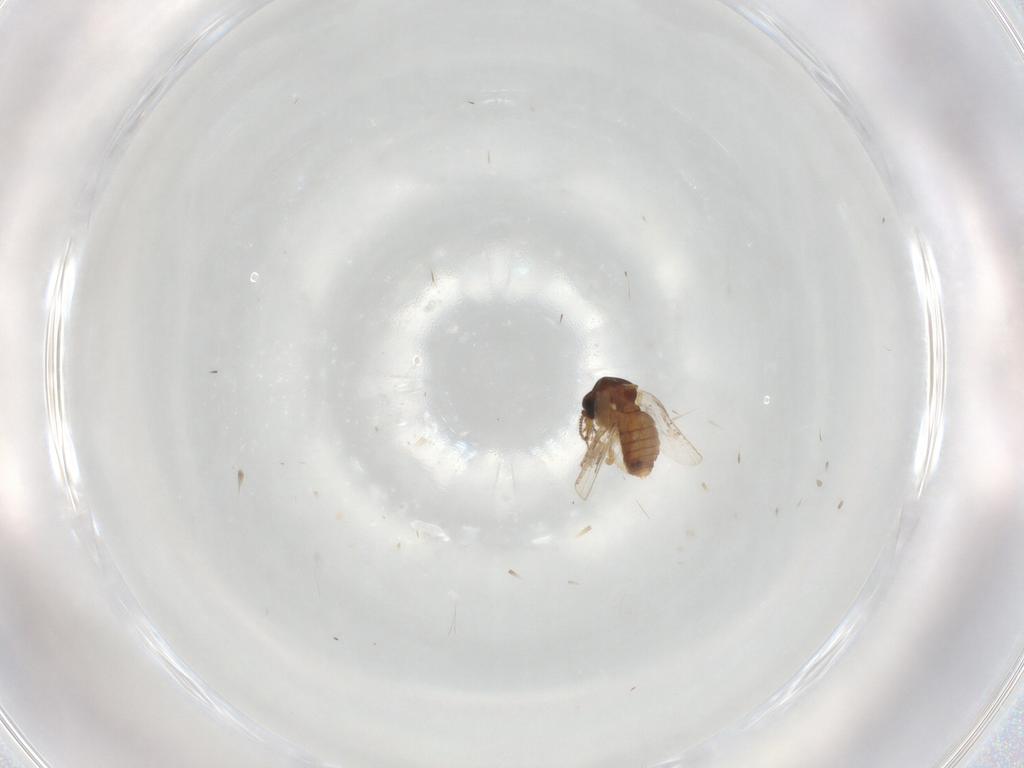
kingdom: Animalia
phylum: Arthropoda
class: Insecta
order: Diptera
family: Ceratopogonidae
